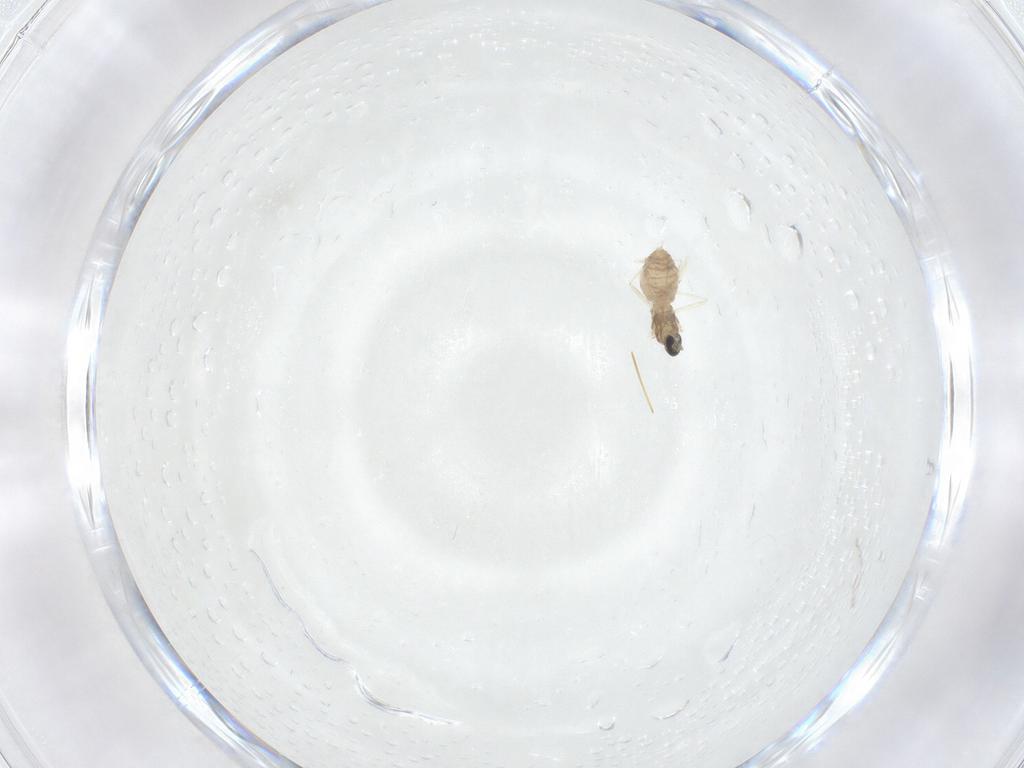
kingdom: Animalia
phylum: Arthropoda
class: Insecta
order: Diptera
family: Cecidomyiidae
